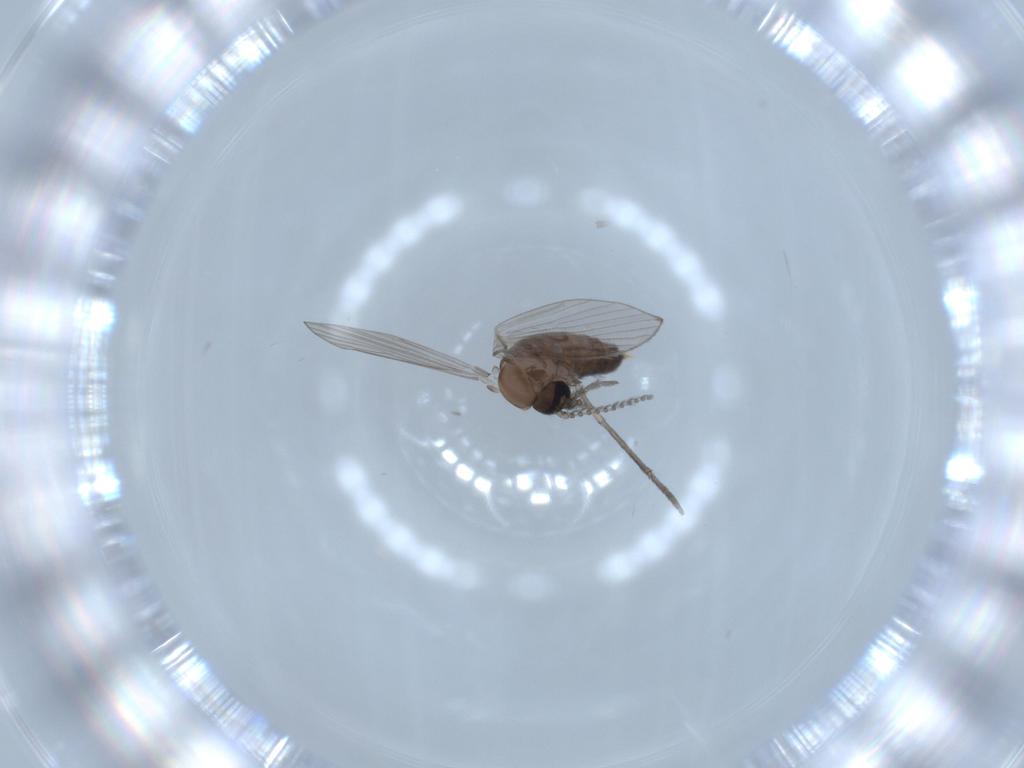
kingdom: Animalia
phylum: Arthropoda
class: Insecta
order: Diptera
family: Psychodidae
